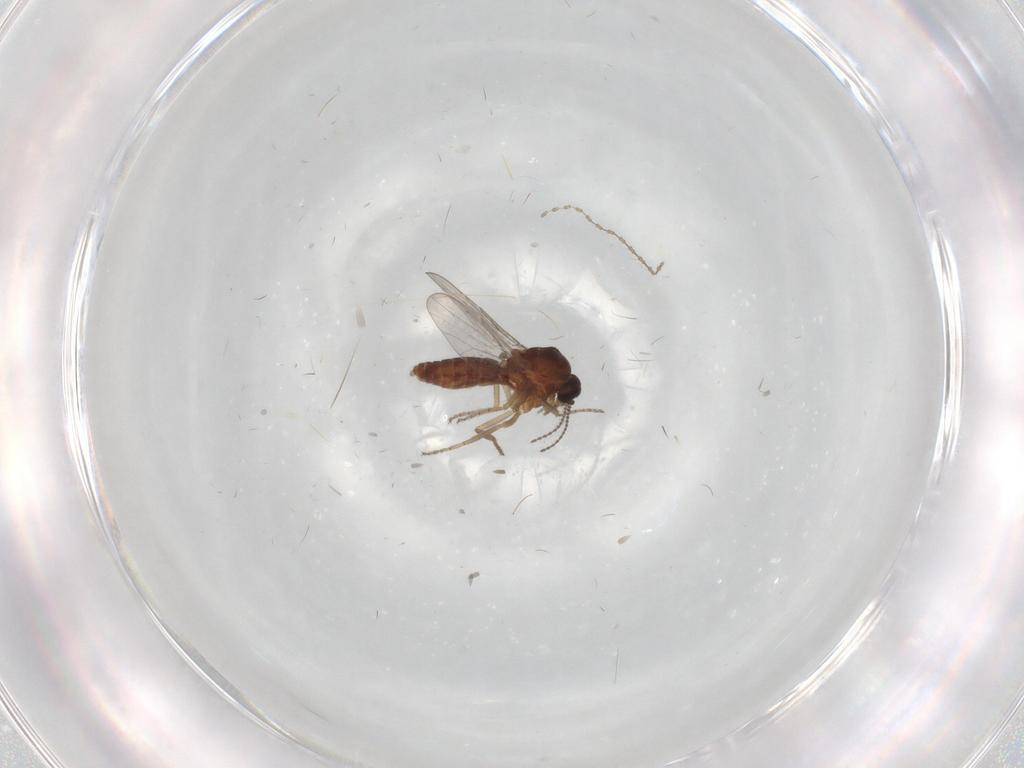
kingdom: Animalia
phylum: Arthropoda
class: Insecta
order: Diptera
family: Ceratopogonidae
